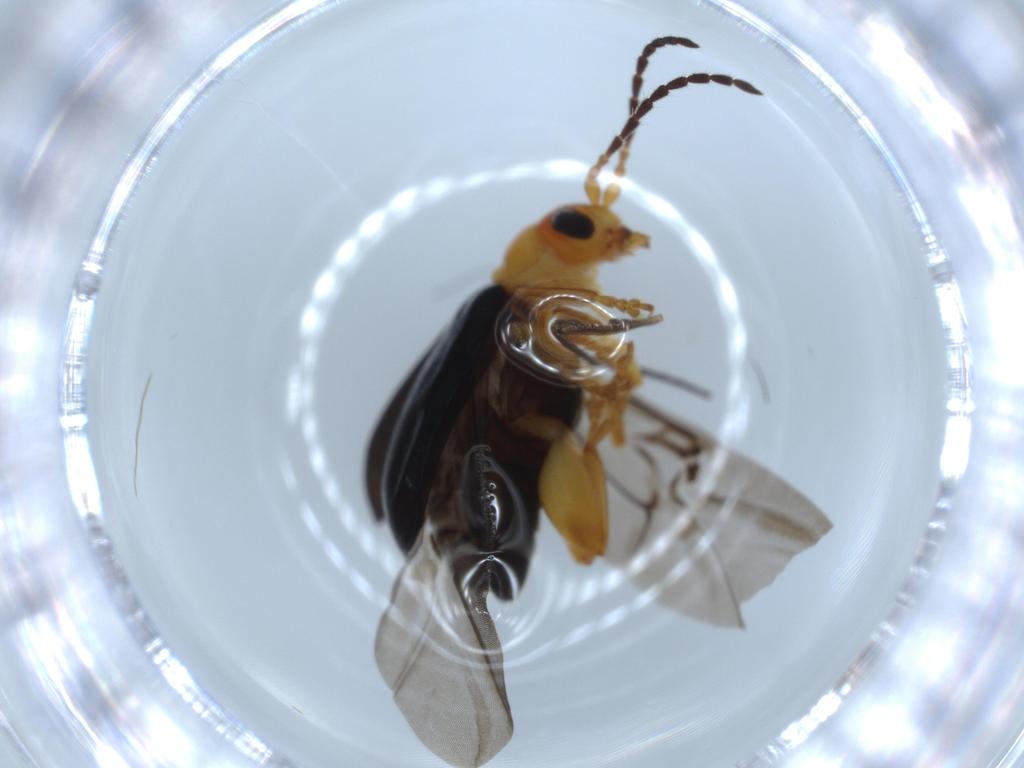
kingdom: Animalia
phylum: Arthropoda
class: Insecta
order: Coleoptera
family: Chrysomelidae
